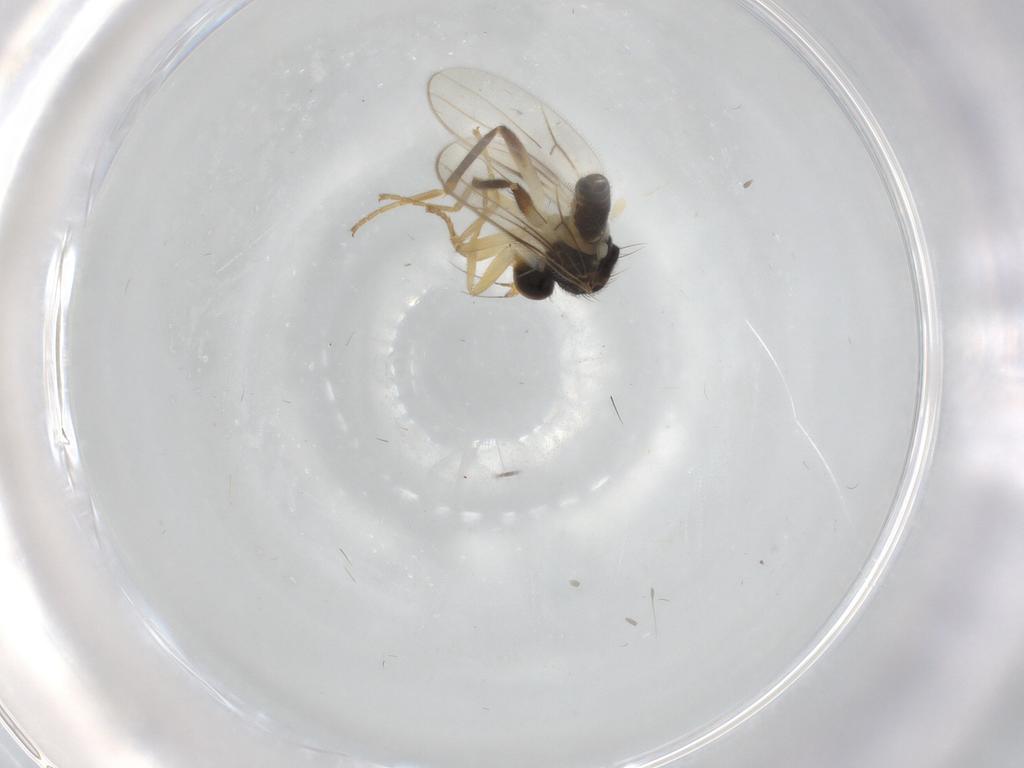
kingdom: Animalia
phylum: Arthropoda
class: Insecta
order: Diptera
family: Hybotidae
